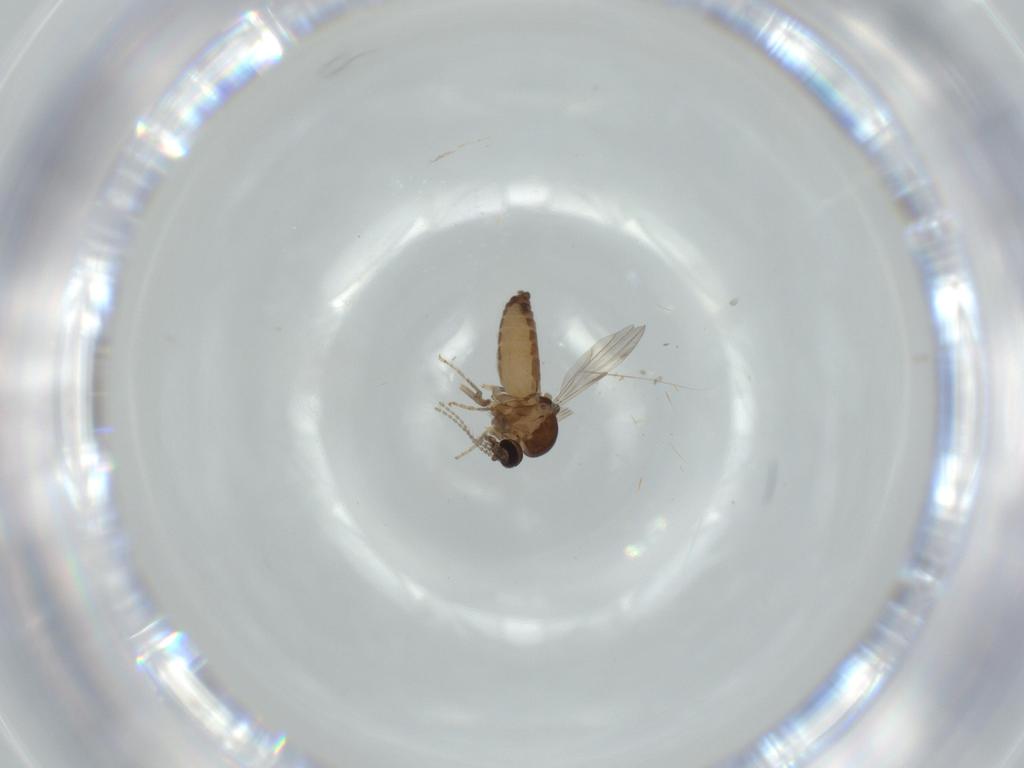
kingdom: Animalia
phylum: Arthropoda
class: Insecta
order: Diptera
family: Ceratopogonidae
